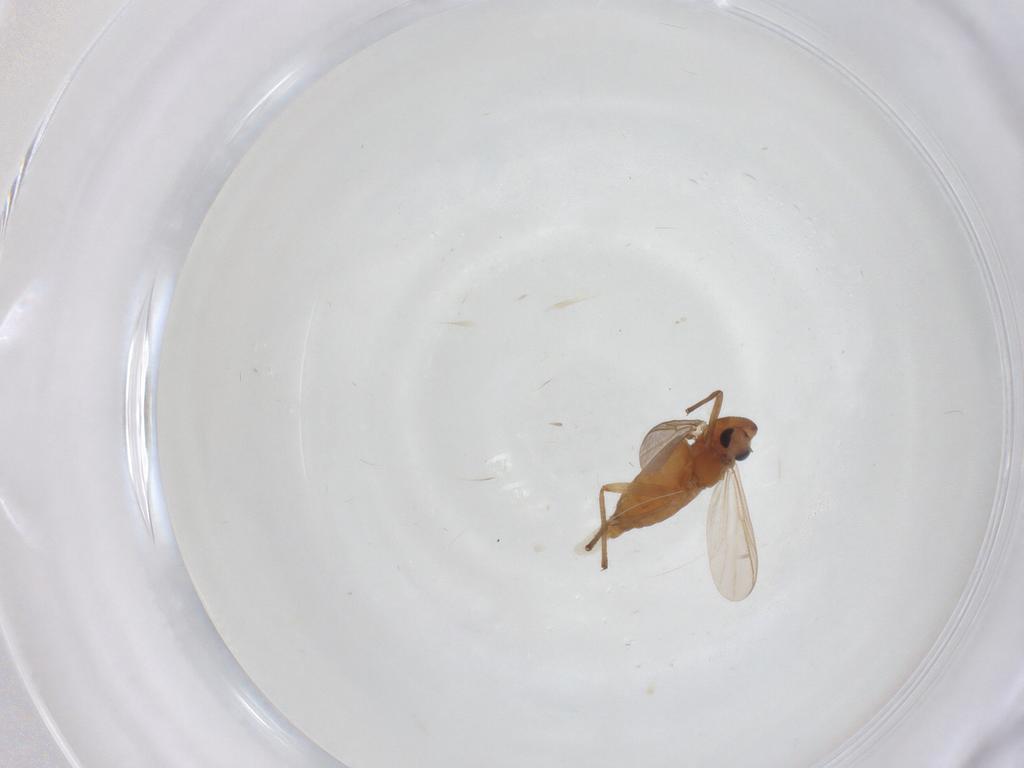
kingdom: Animalia
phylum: Arthropoda
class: Insecta
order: Diptera
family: Chironomidae
